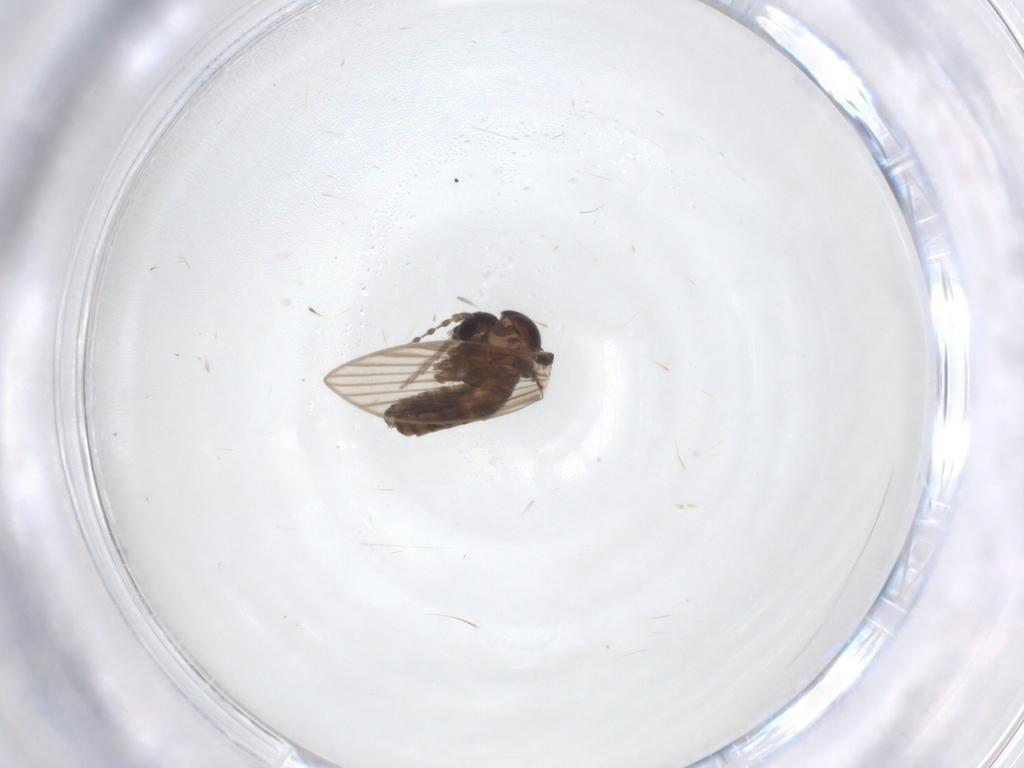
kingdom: Animalia
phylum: Arthropoda
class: Insecta
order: Diptera
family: Psychodidae
